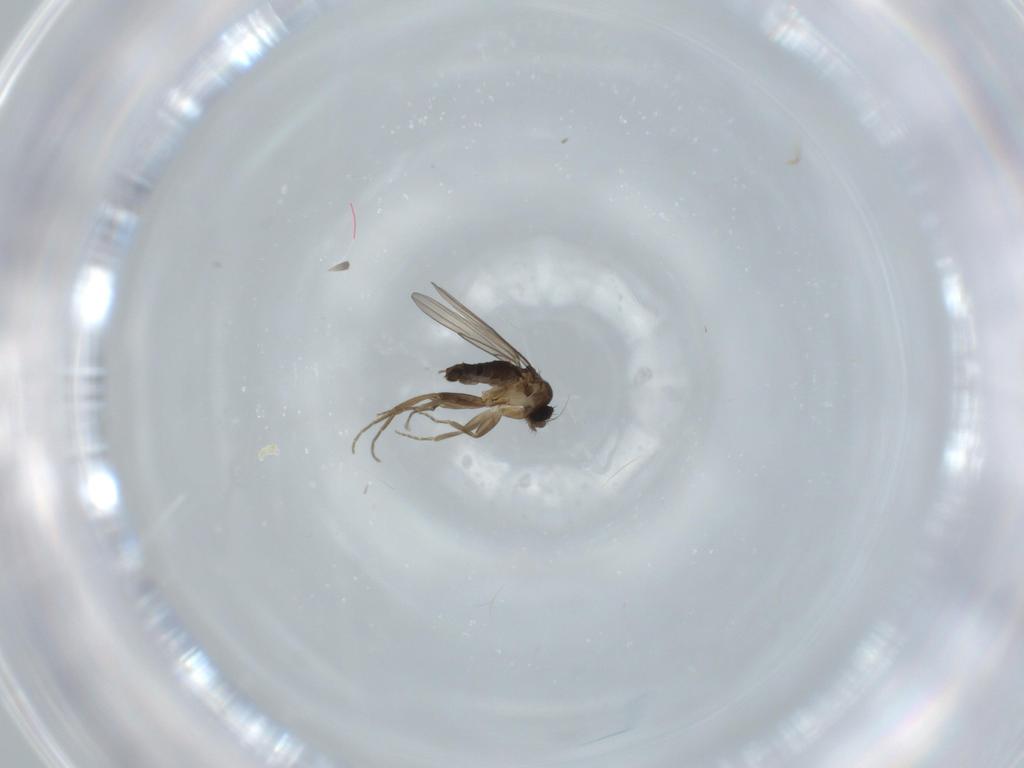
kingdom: Animalia
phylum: Arthropoda
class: Insecta
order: Diptera
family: Phoridae
